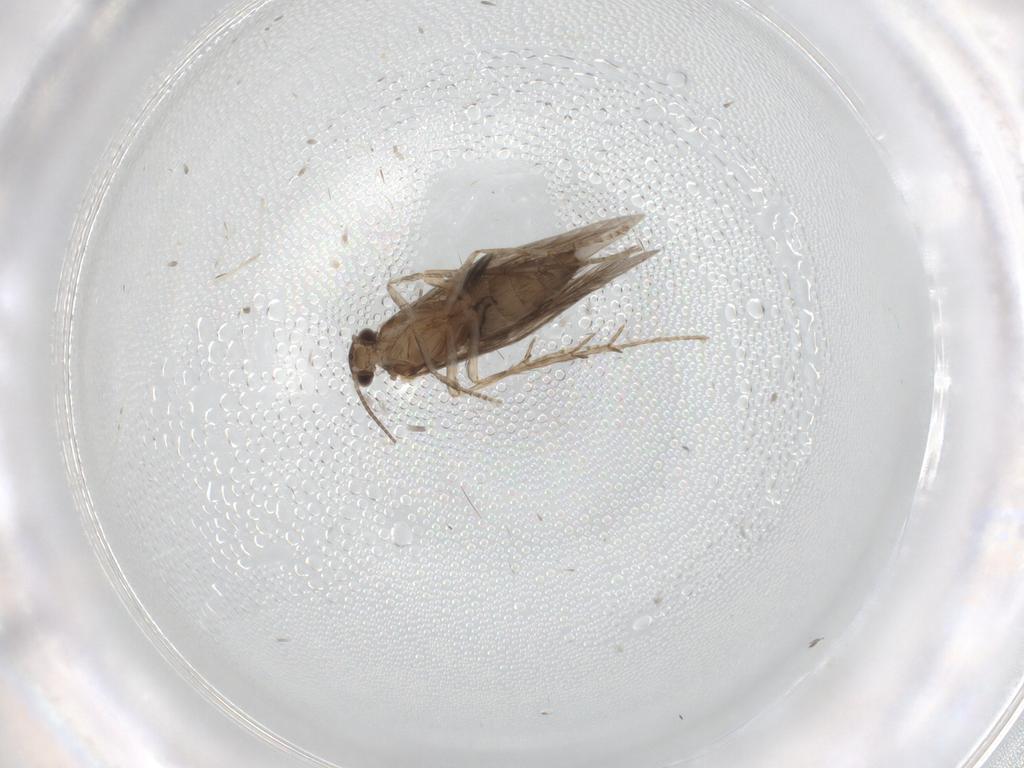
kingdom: Animalia
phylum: Arthropoda
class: Insecta
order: Trichoptera
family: Hydroptilidae
